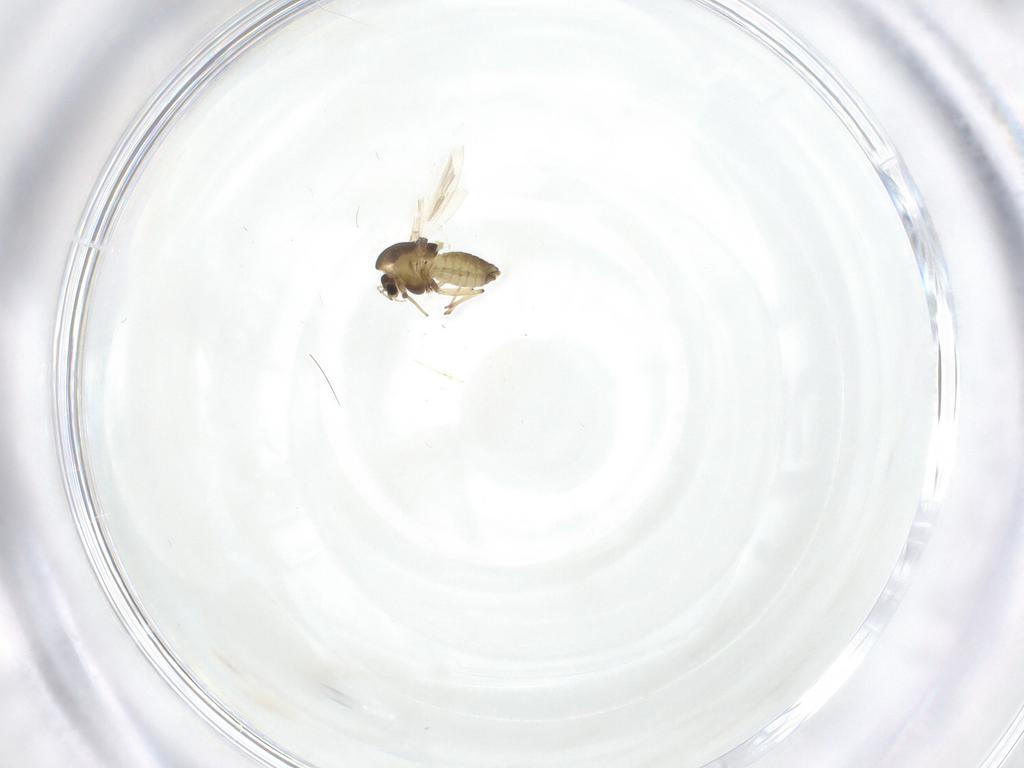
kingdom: Animalia
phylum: Arthropoda
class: Insecta
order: Diptera
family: Chironomidae
